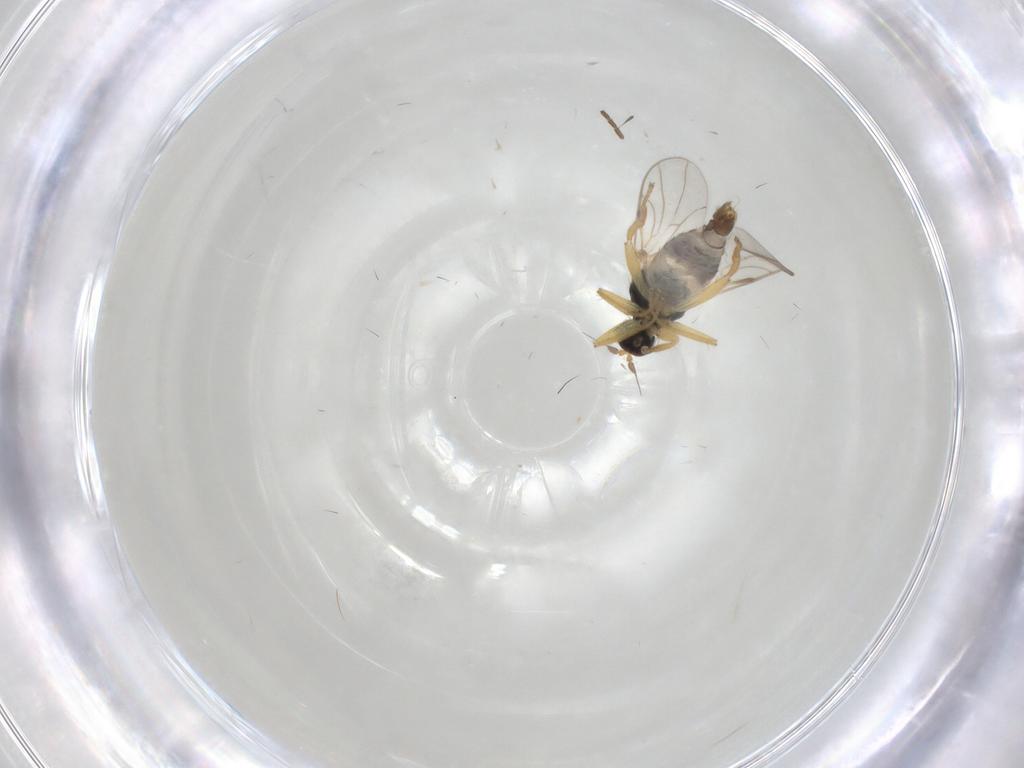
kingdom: Animalia
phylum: Arthropoda
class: Insecta
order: Diptera
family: Hybotidae
